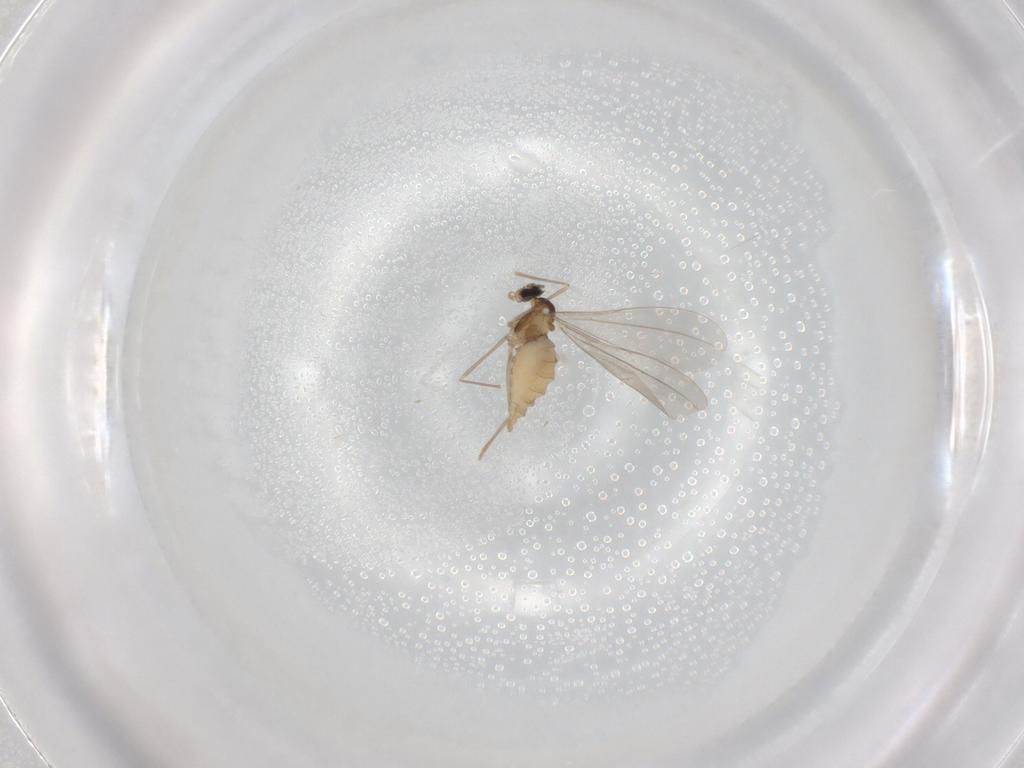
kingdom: Animalia
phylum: Arthropoda
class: Insecta
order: Diptera
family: Cecidomyiidae
